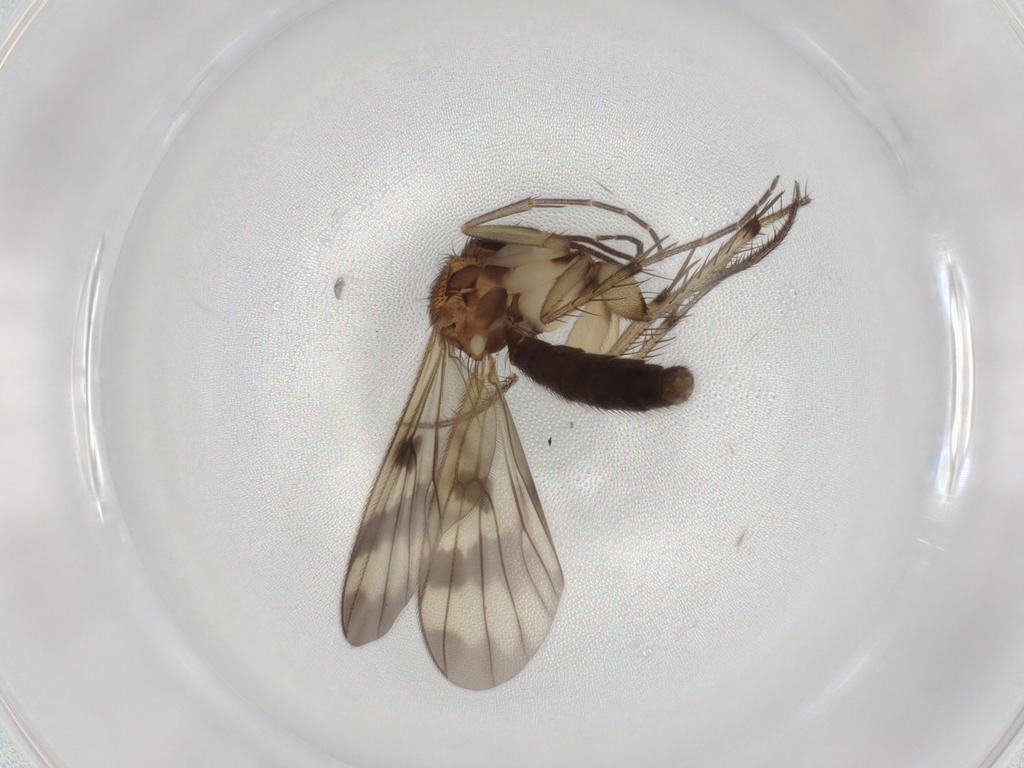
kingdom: Animalia
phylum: Arthropoda
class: Insecta
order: Diptera
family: Mycetophilidae
